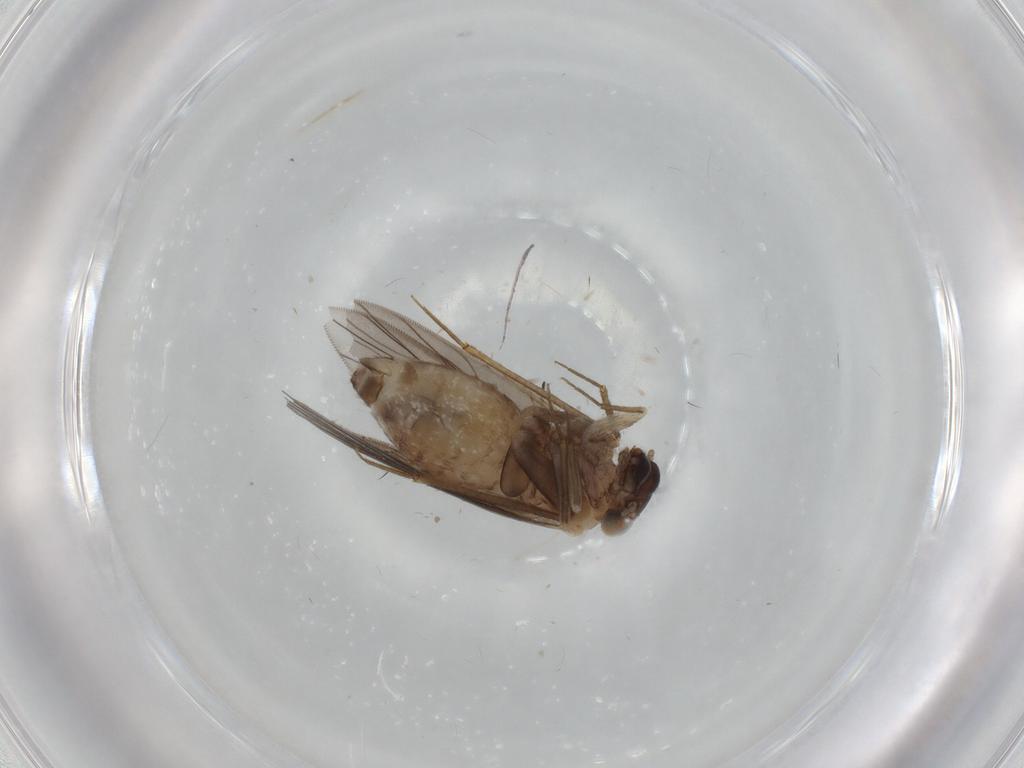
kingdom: Animalia
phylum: Arthropoda
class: Insecta
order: Psocodea
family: Lepidopsocidae
